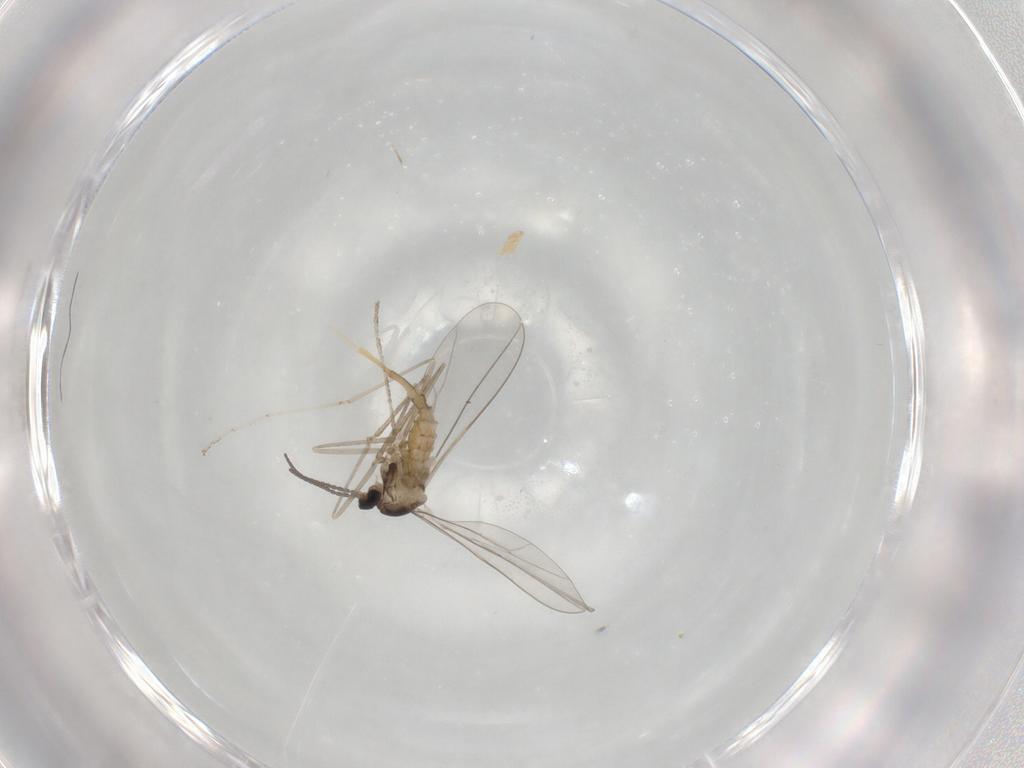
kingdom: Animalia
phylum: Arthropoda
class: Insecta
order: Diptera
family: Cecidomyiidae
